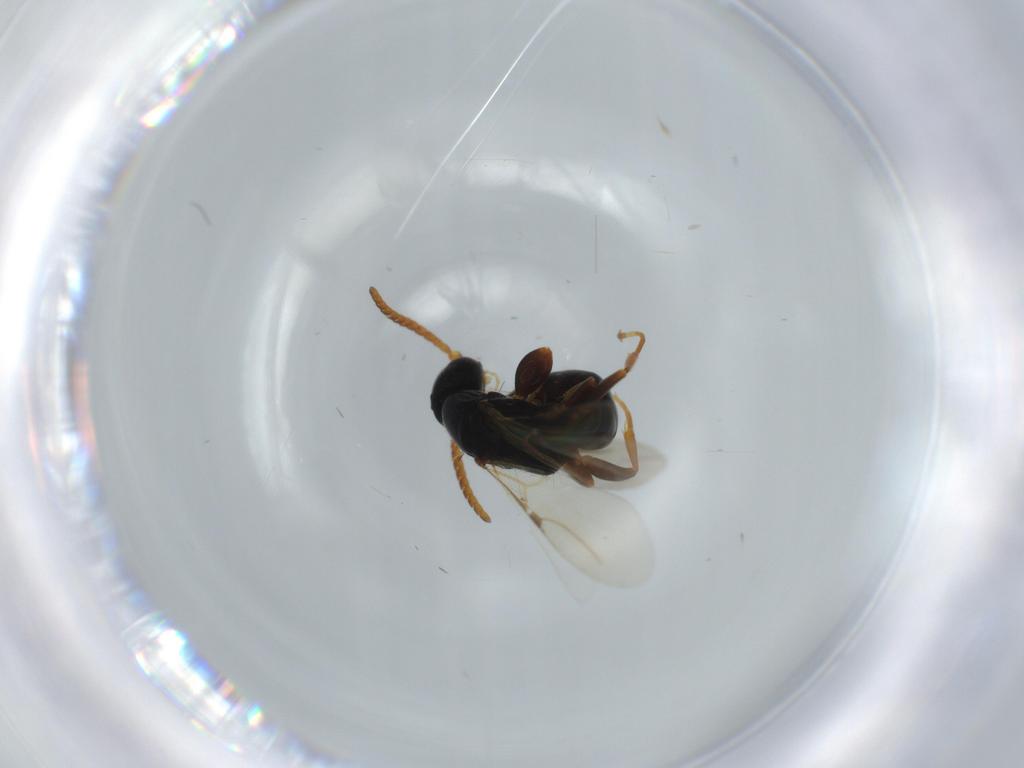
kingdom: Animalia
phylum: Arthropoda
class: Insecta
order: Hymenoptera
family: Bethylidae
